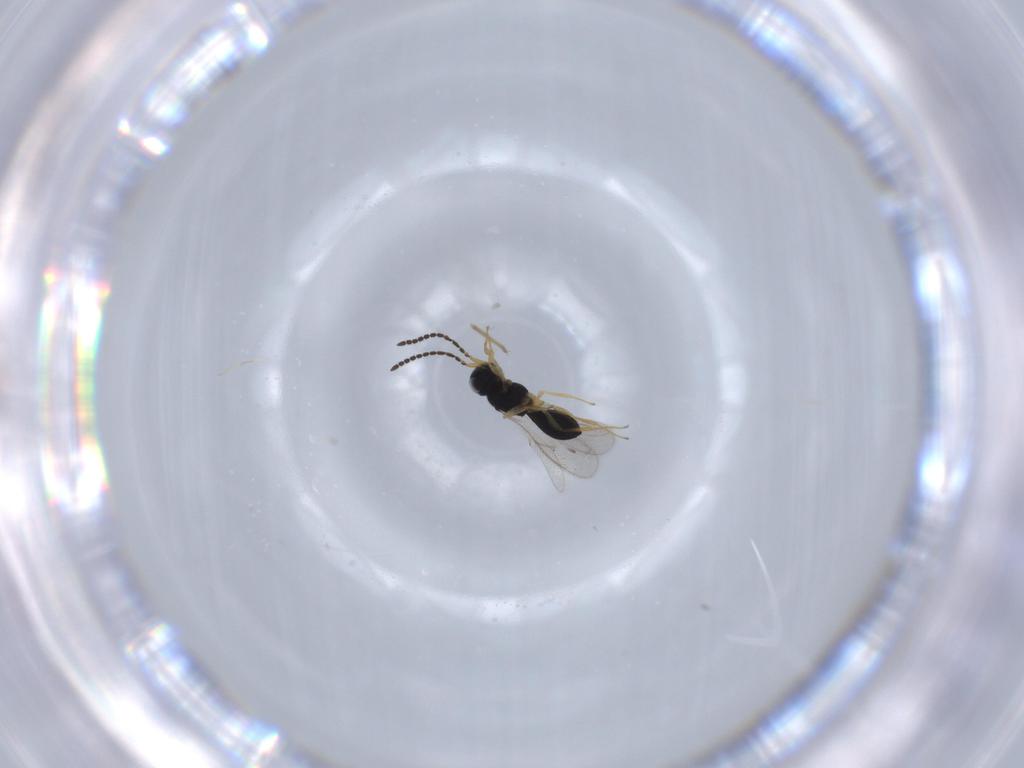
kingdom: Animalia
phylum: Arthropoda
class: Insecta
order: Hymenoptera
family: Scelionidae
